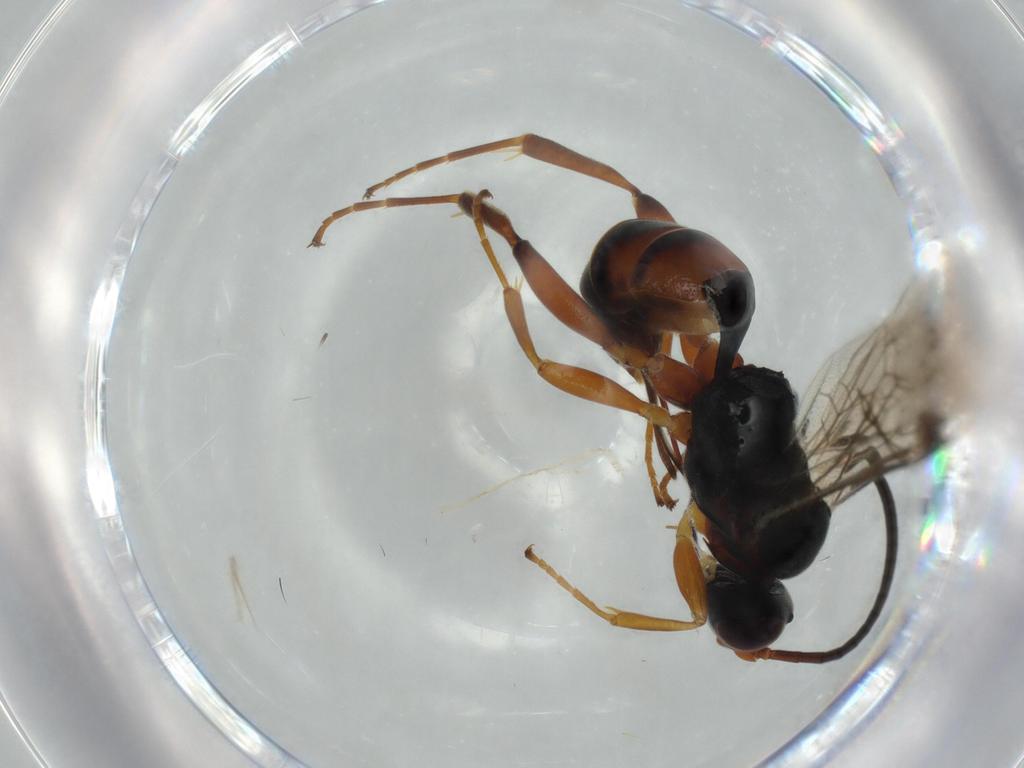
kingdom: Animalia
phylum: Arthropoda
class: Insecta
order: Hymenoptera
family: Ichneumonidae
